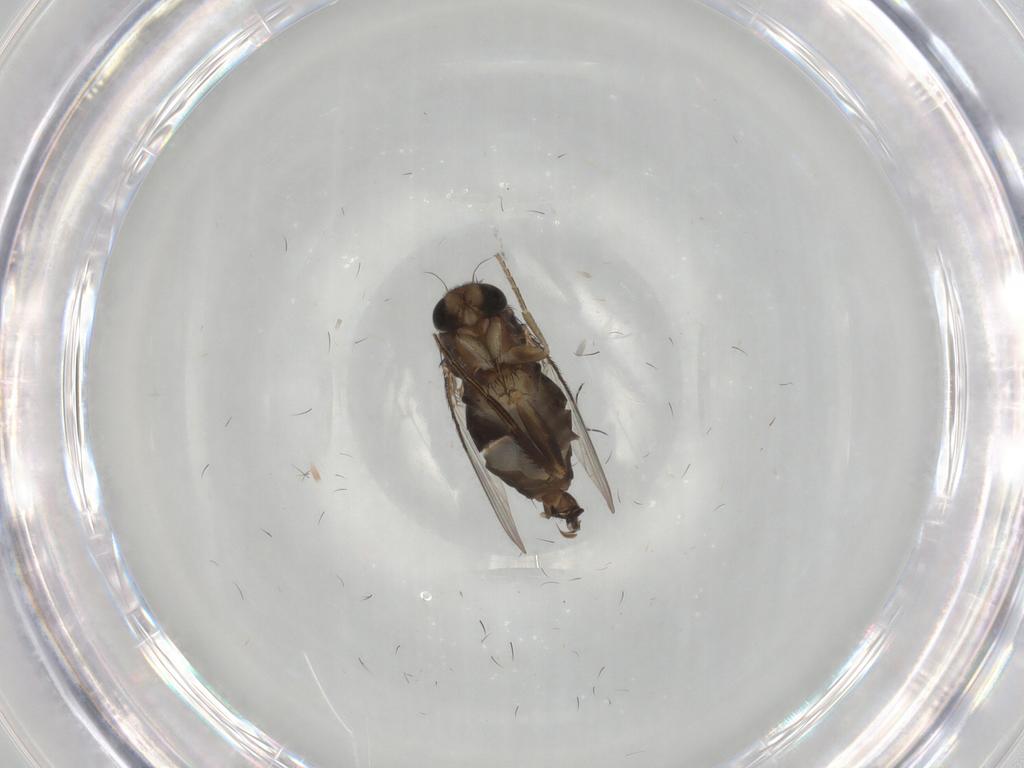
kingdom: Animalia
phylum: Arthropoda
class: Insecta
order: Diptera
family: Phoridae
